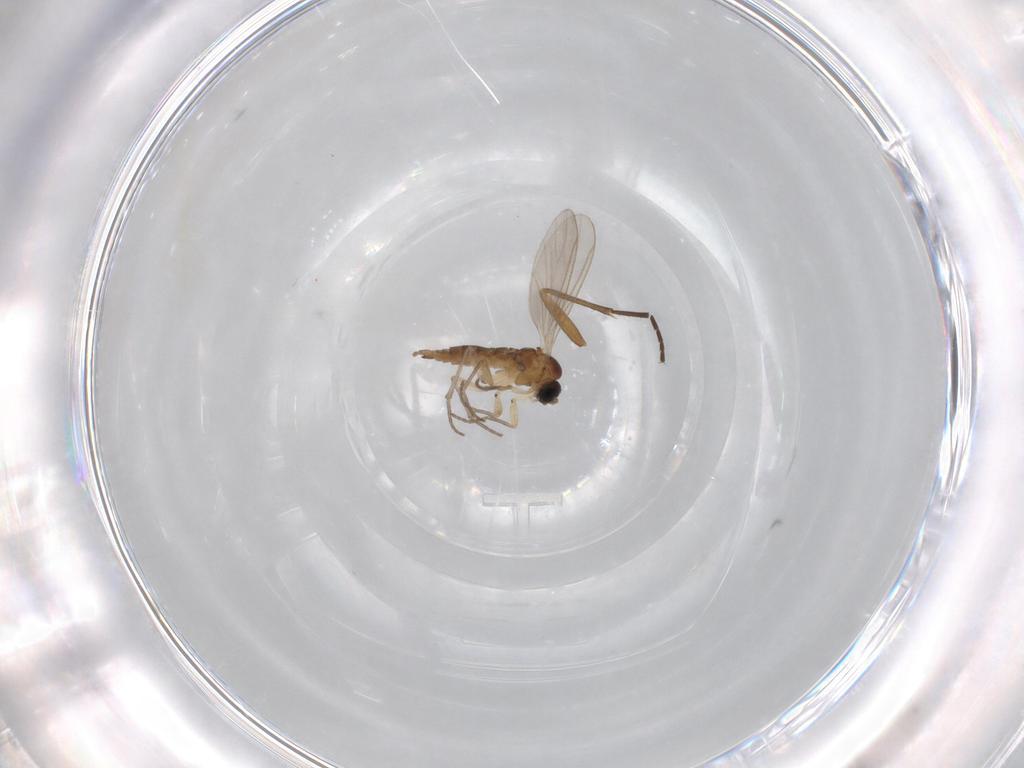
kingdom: Animalia
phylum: Arthropoda
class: Insecta
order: Diptera
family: Sciaridae
